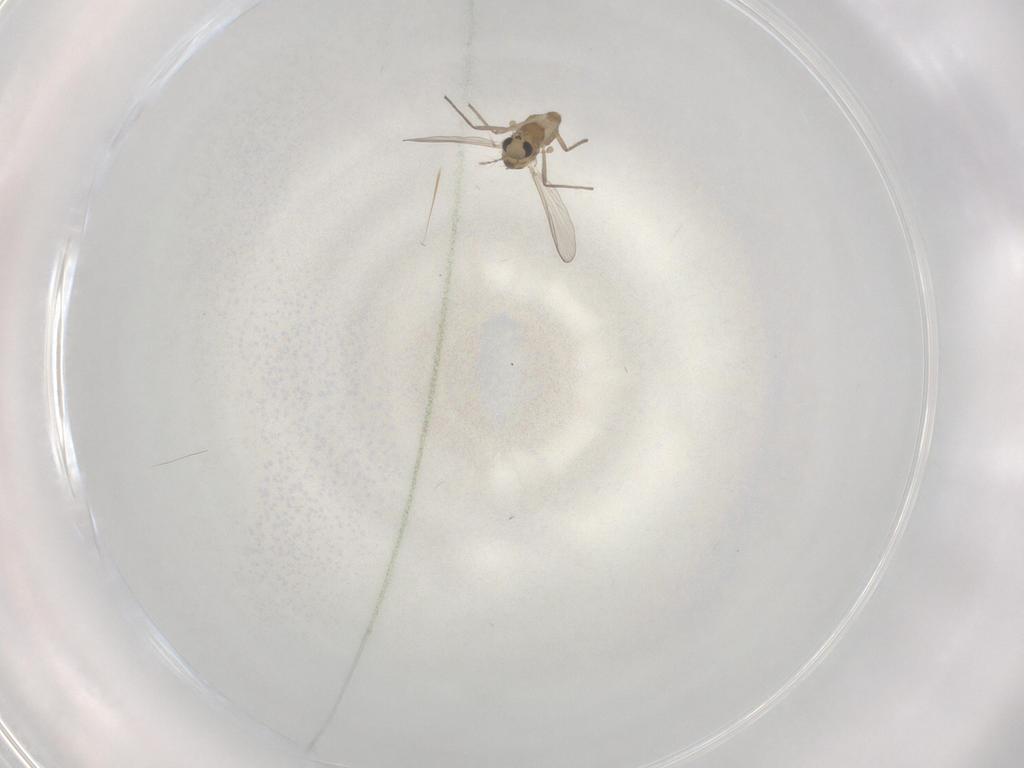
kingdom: Animalia
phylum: Arthropoda
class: Insecta
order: Diptera
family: Chironomidae
